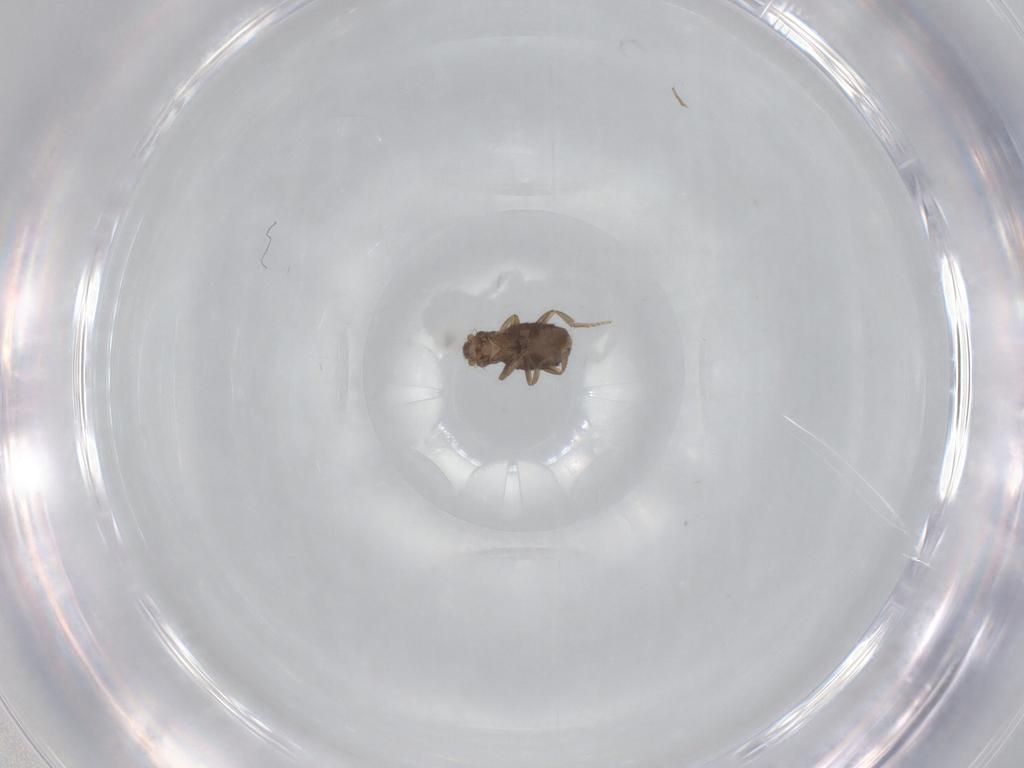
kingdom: Animalia
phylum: Arthropoda
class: Insecta
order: Diptera
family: Phoridae
